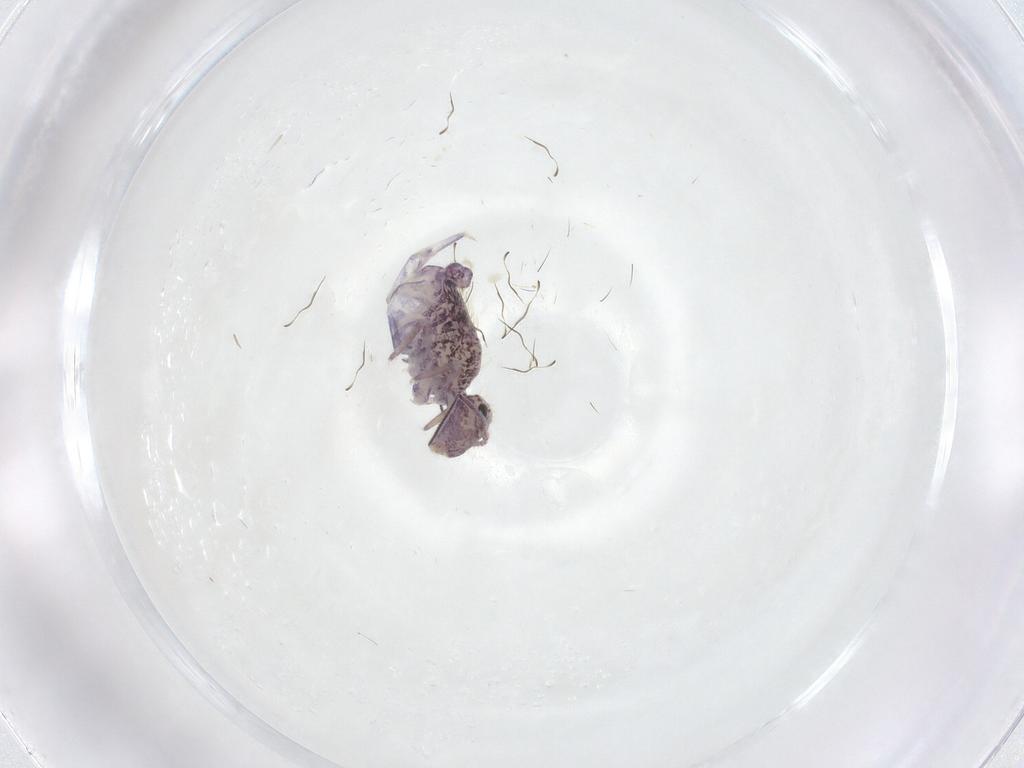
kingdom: Animalia
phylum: Arthropoda
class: Collembola
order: Symphypleona
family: Sminthuridae
